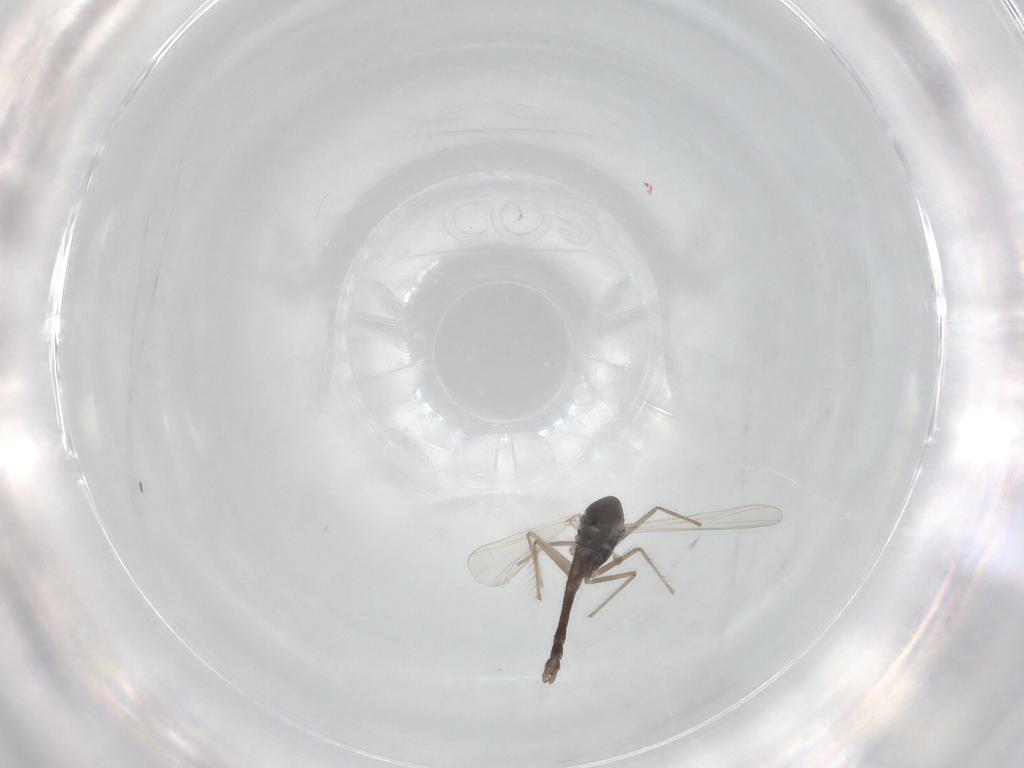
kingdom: Animalia
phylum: Arthropoda
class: Insecta
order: Diptera
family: Chironomidae
